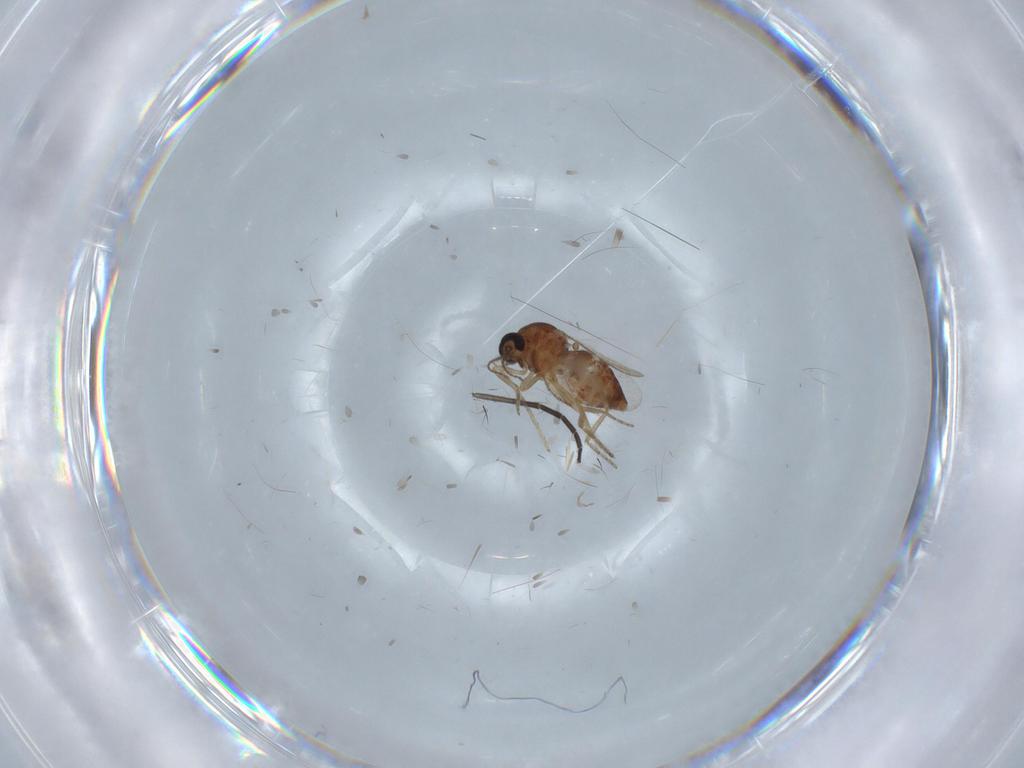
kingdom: Animalia
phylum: Arthropoda
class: Insecta
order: Diptera
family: Ceratopogonidae
